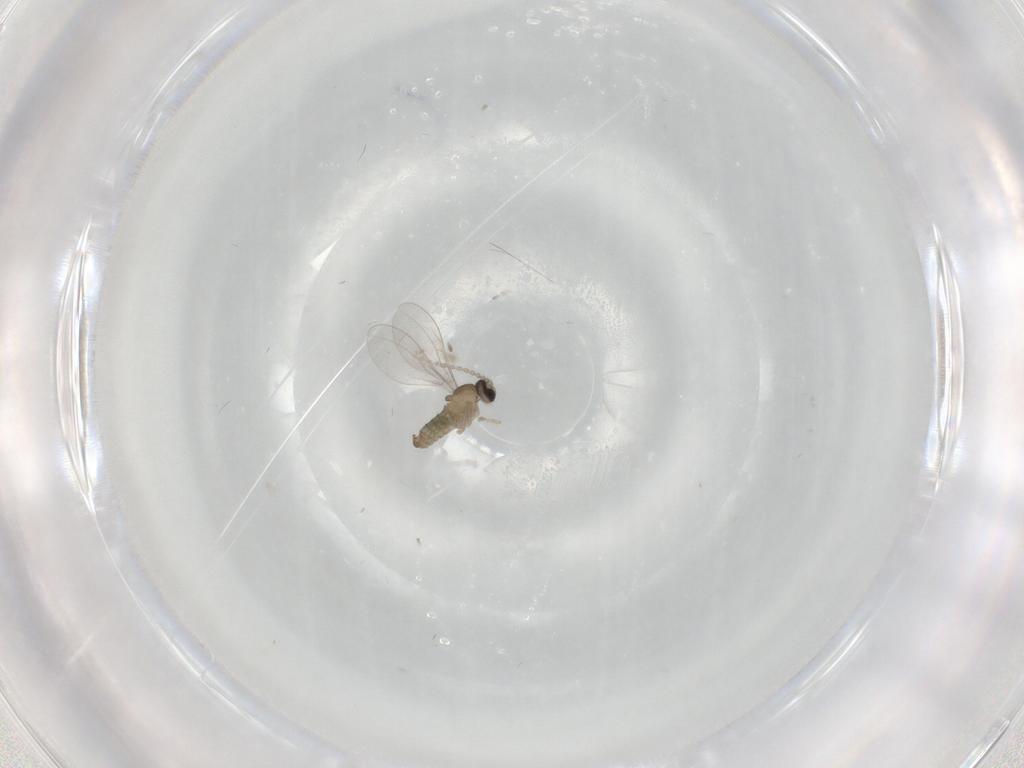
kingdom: Animalia
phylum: Arthropoda
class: Insecta
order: Diptera
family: Cecidomyiidae
